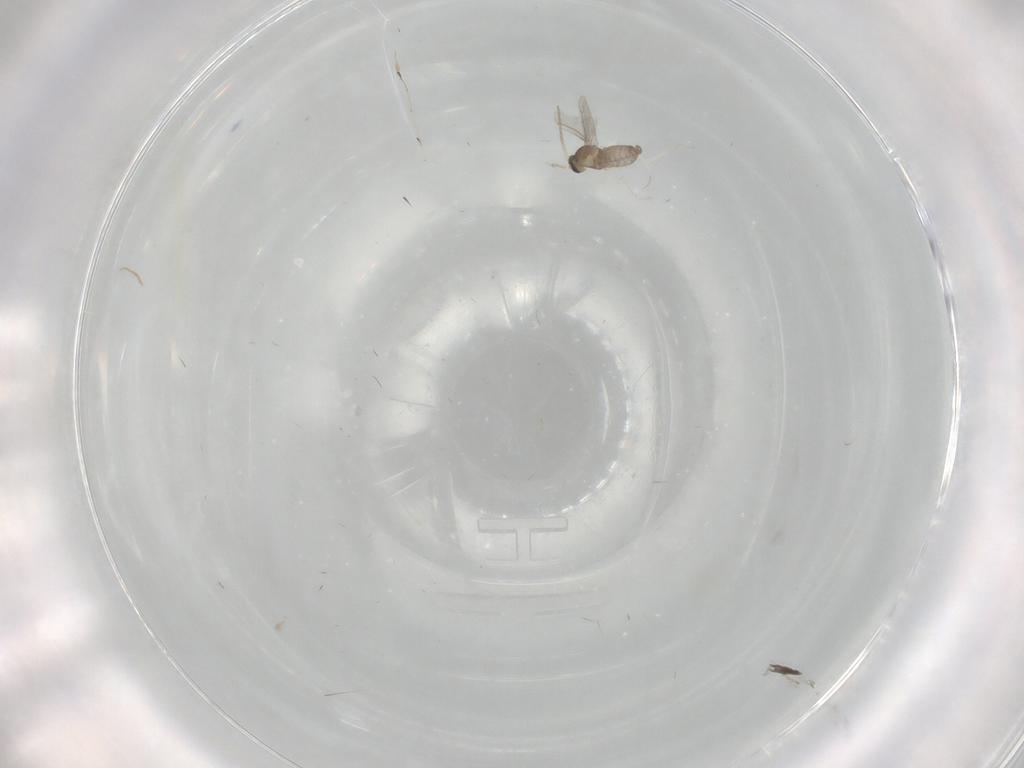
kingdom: Animalia
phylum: Arthropoda
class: Insecta
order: Diptera
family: Cecidomyiidae
